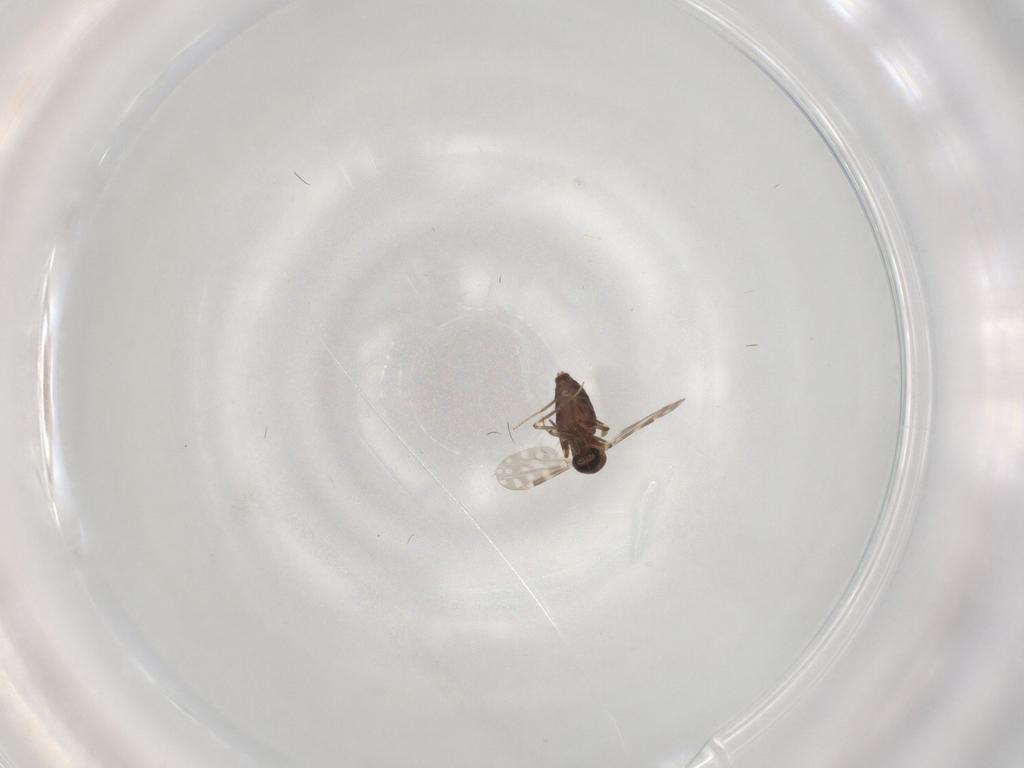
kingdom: Animalia
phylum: Arthropoda
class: Insecta
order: Diptera
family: Ceratopogonidae
